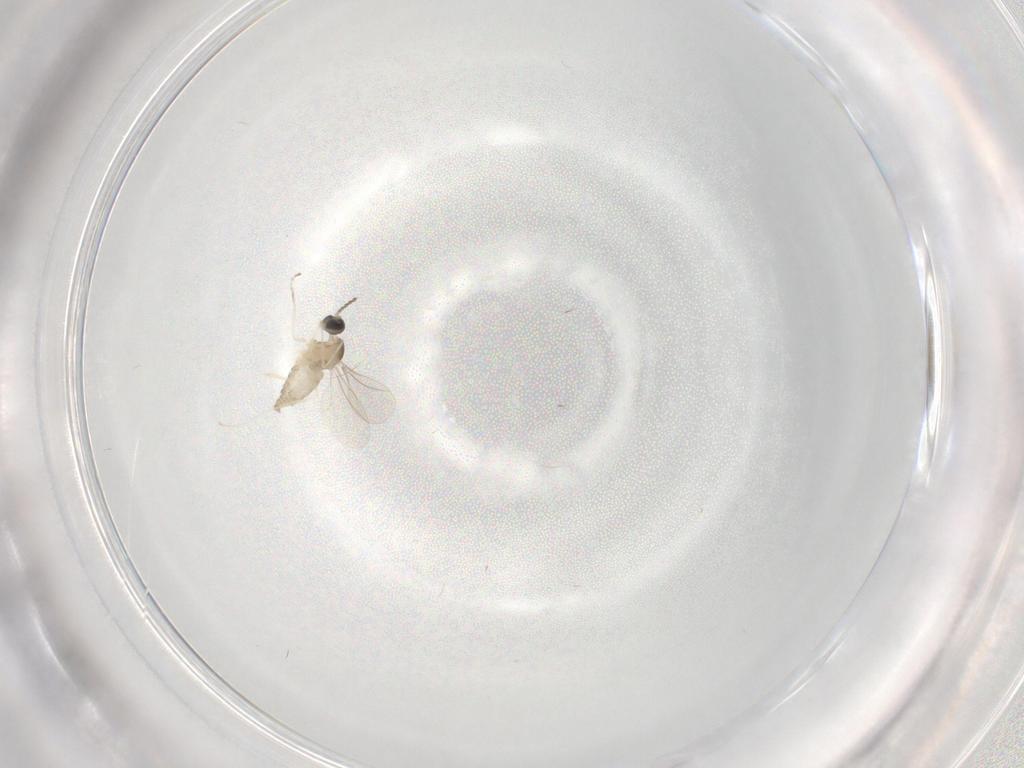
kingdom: Animalia
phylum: Arthropoda
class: Insecta
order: Diptera
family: Cecidomyiidae
